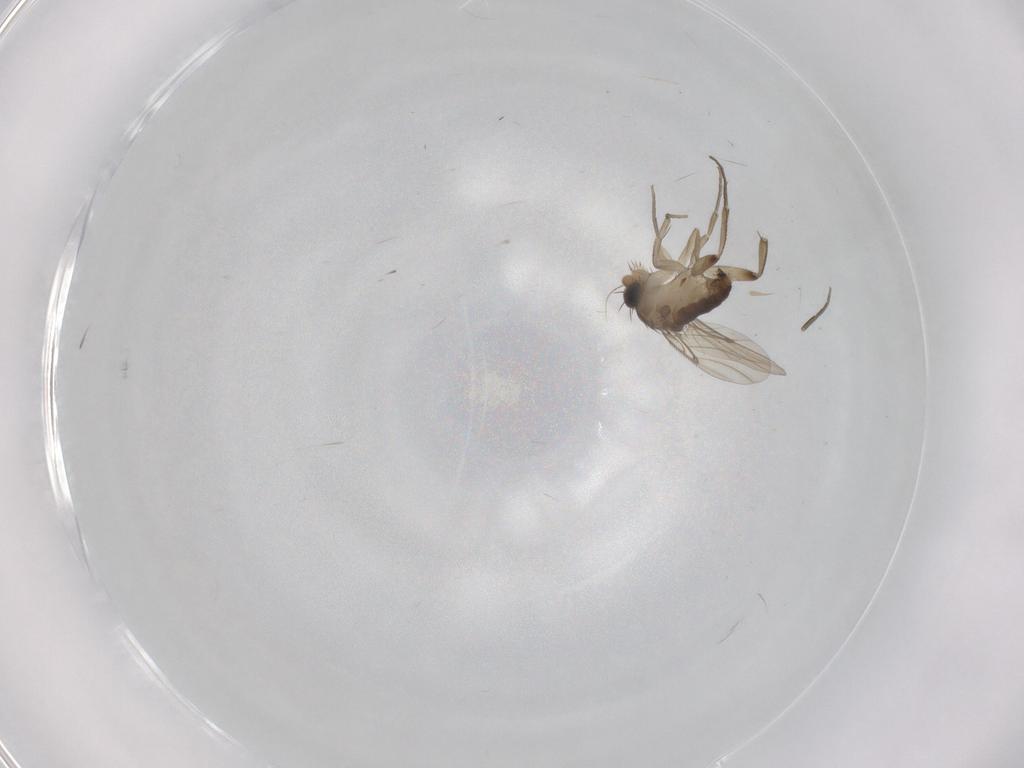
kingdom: Animalia
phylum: Arthropoda
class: Insecta
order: Diptera
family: Phoridae
